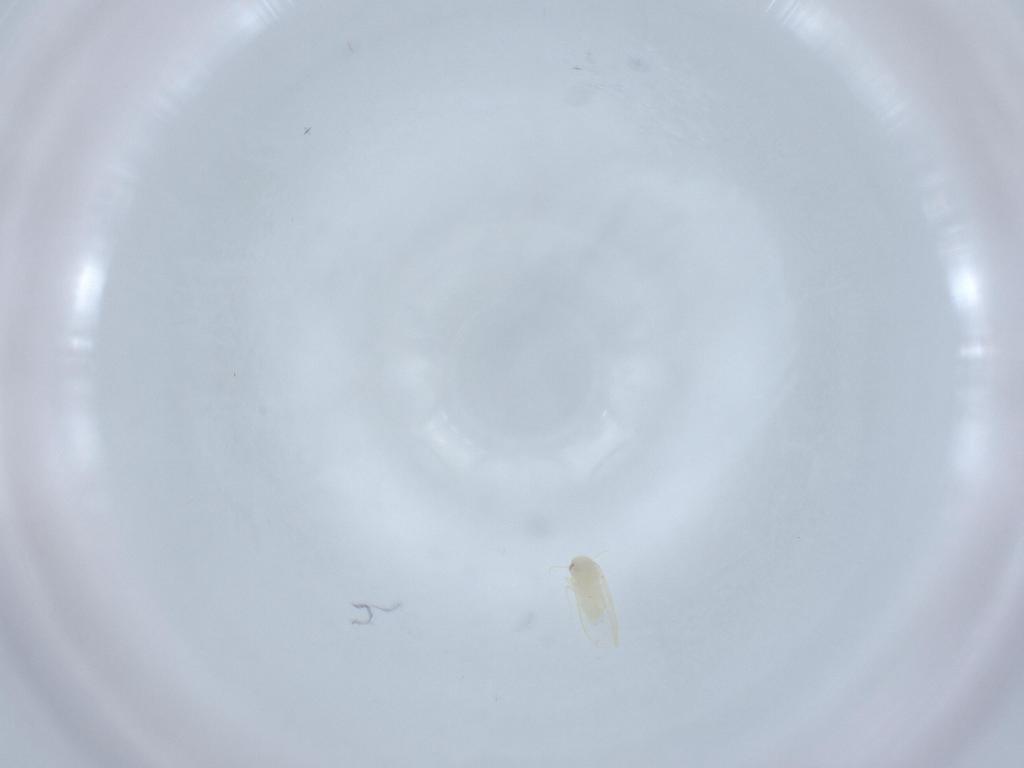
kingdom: Animalia
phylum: Arthropoda
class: Insecta
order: Hemiptera
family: Aleyrodidae
